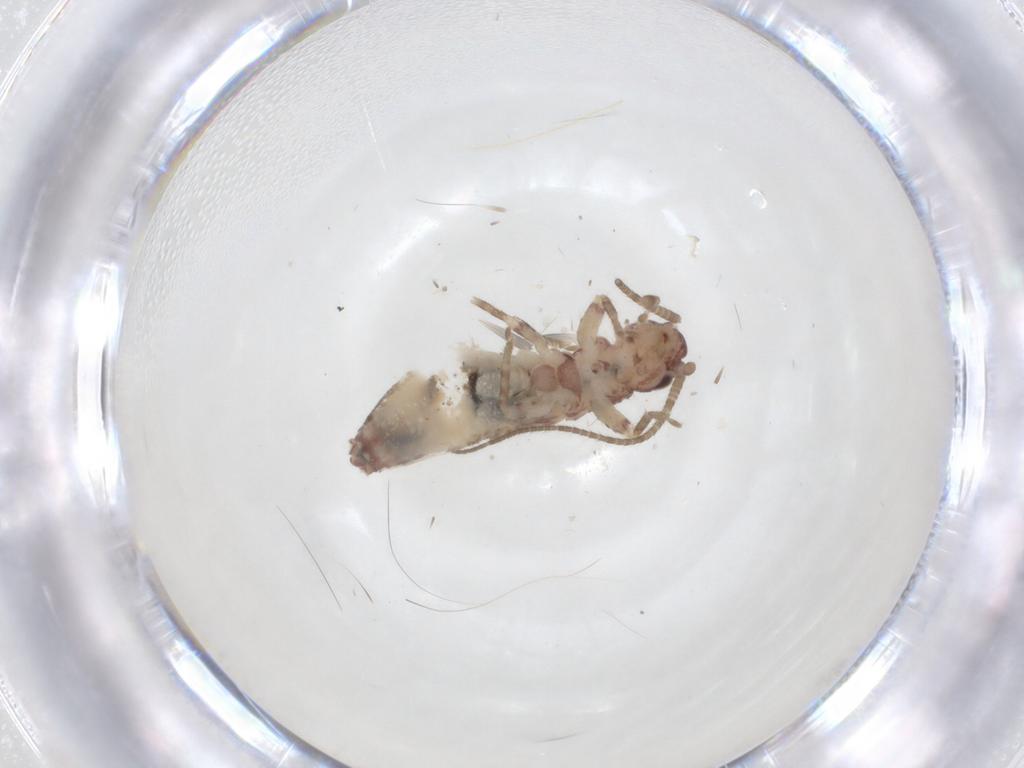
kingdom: Animalia
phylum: Arthropoda
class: Insecta
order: Orthoptera
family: Gryllidae
